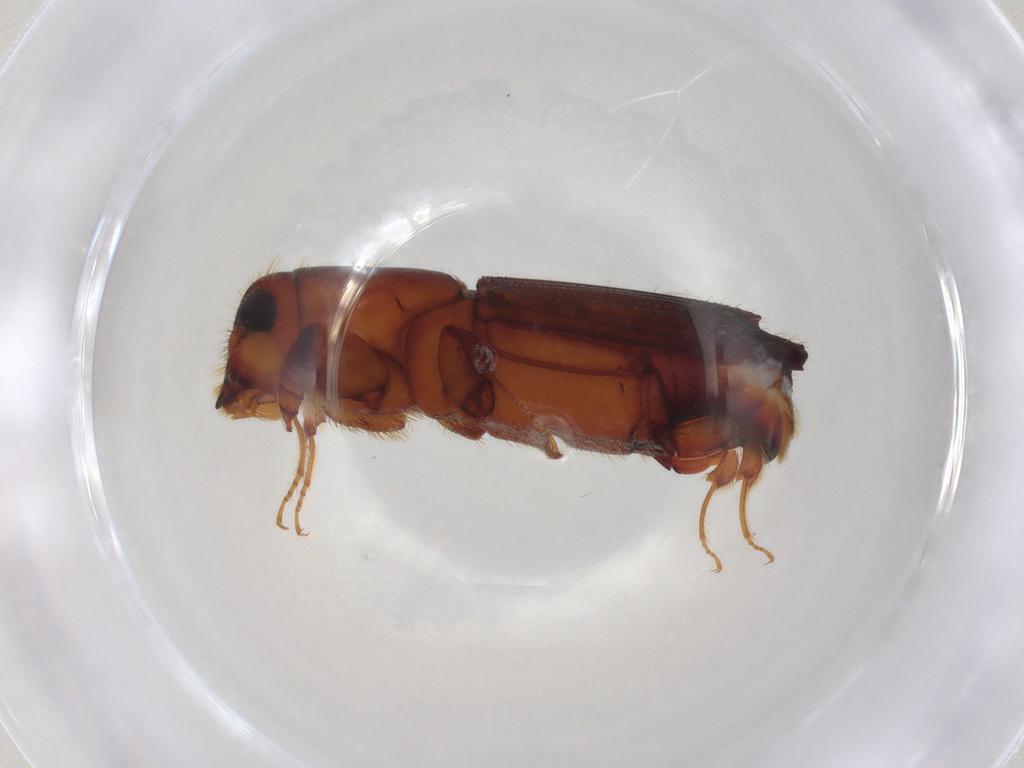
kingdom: Animalia
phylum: Arthropoda
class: Insecta
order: Coleoptera
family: Curculionidae
